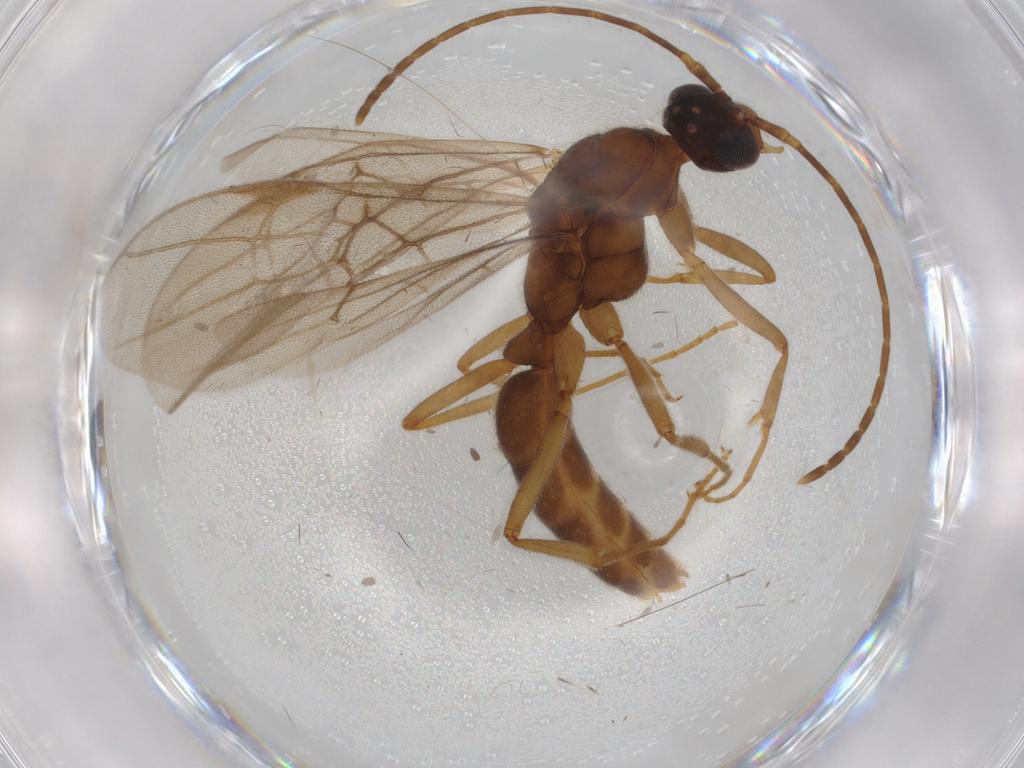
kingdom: Animalia
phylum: Arthropoda
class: Insecta
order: Hymenoptera
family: Formicidae
